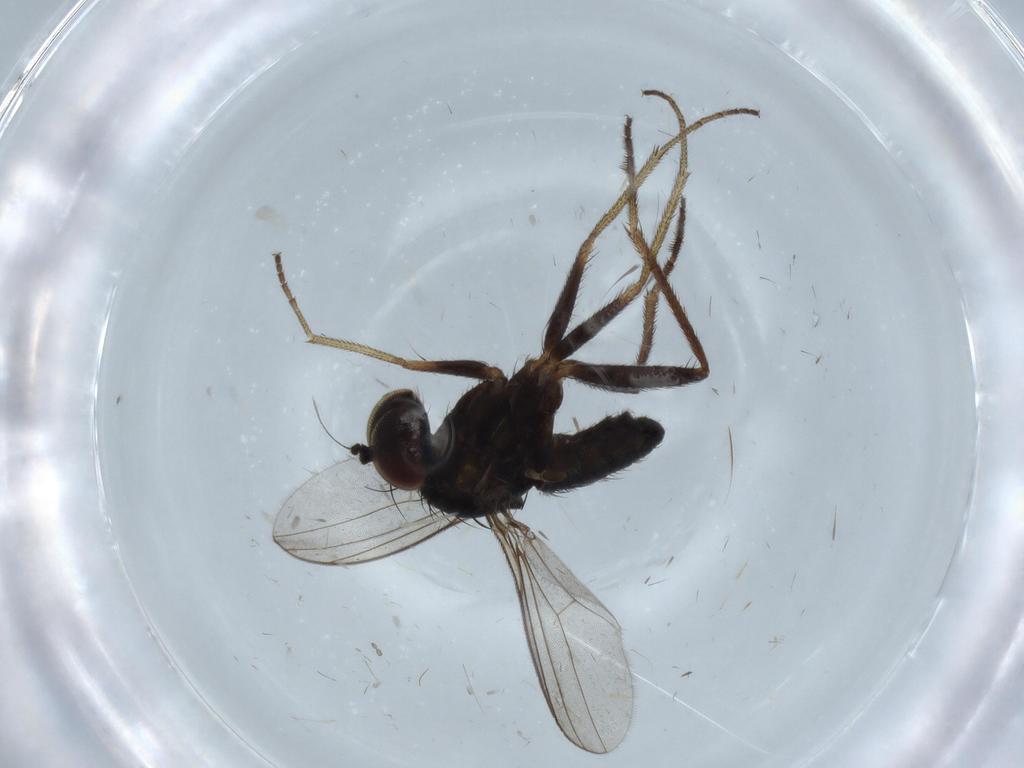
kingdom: Animalia
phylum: Arthropoda
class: Insecta
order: Diptera
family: Dolichopodidae
